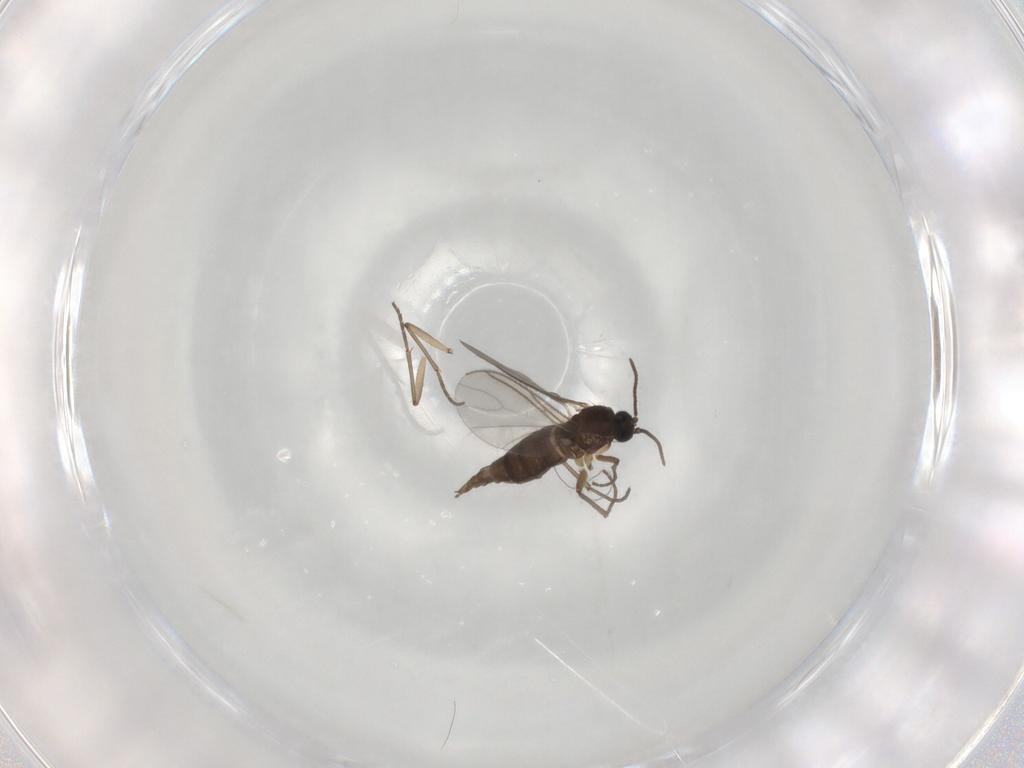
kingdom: Animalia
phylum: Arthropoda
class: Insecta
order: Diptera
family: Sciaridae
